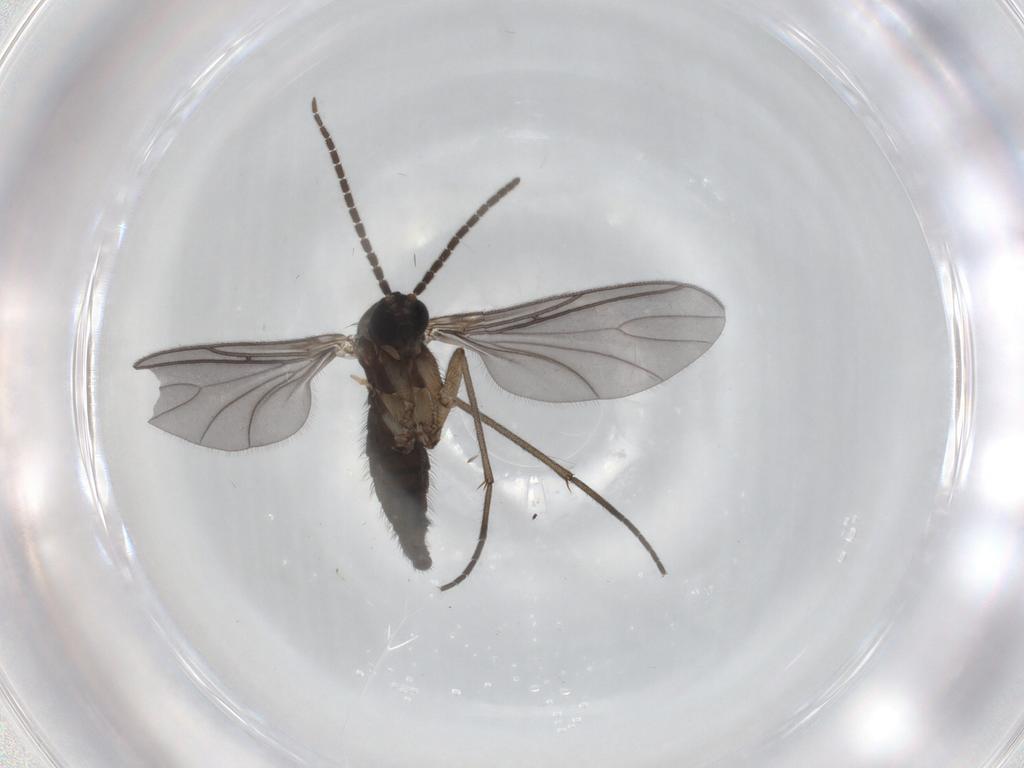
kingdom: Animalia
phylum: Arthropoda
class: Insecta
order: Diptera
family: Sciaridae
